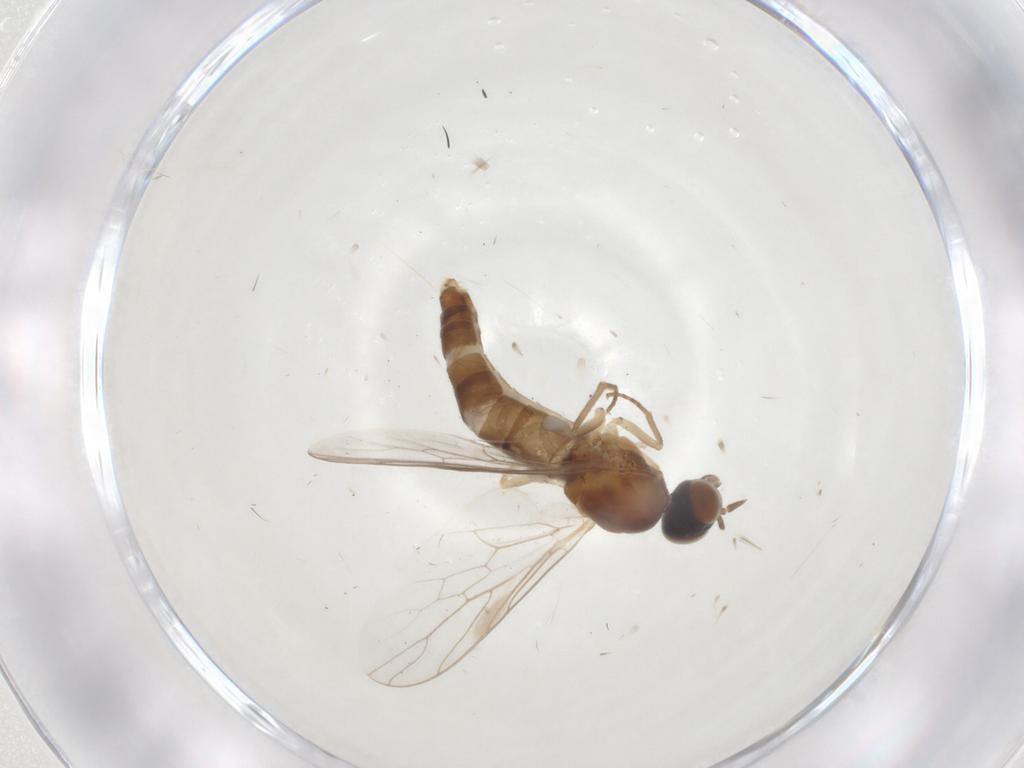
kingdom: Animalia
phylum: Arthropoda
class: Insecta
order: Diptera
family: Scenopinidae
